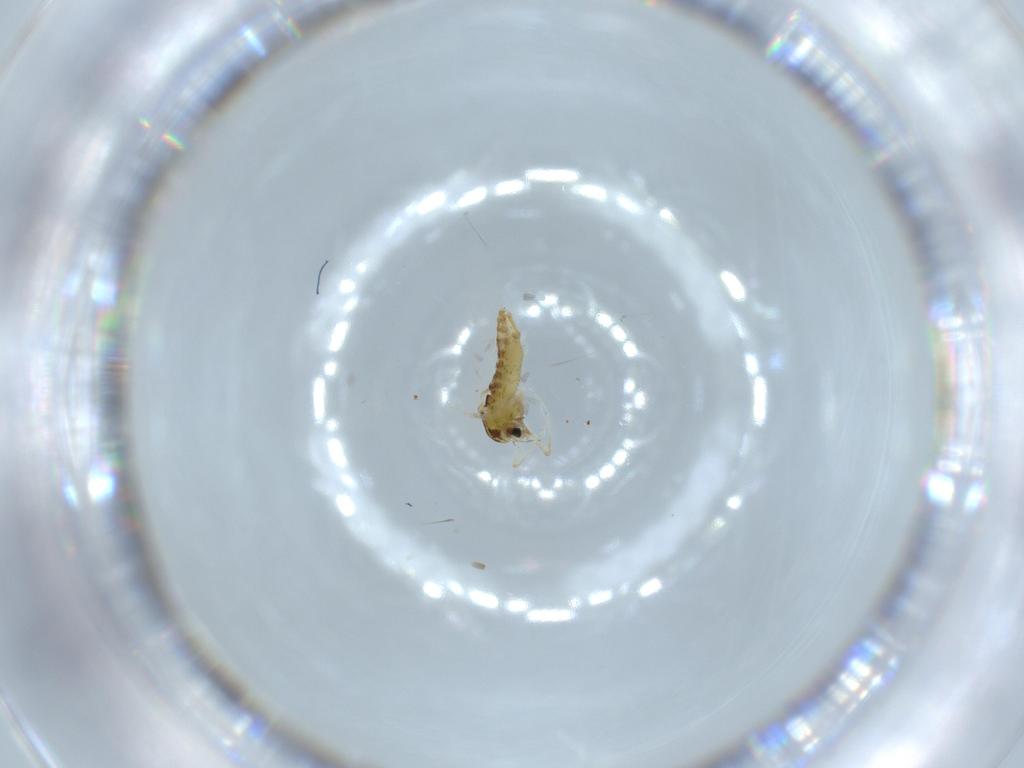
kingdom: Animalia
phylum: Arthropoda
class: Insecta
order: Diptera
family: Chironomidae
